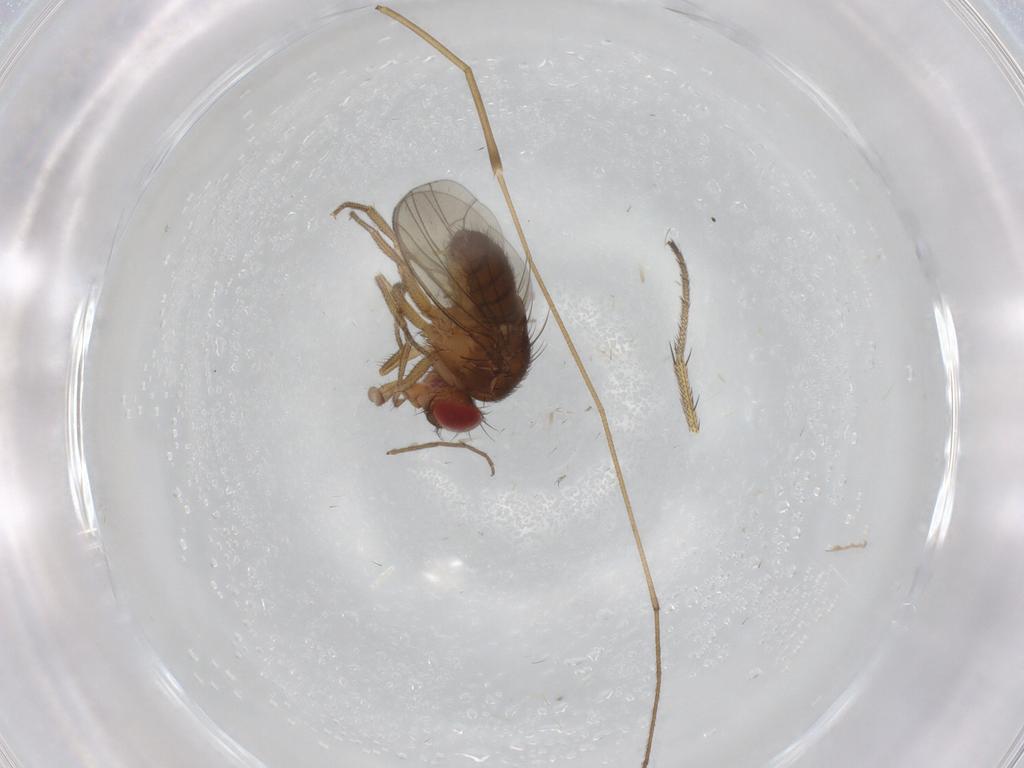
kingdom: Animalia
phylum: Arthropoda
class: Insecta
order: Diptera
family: Drosophilidae
